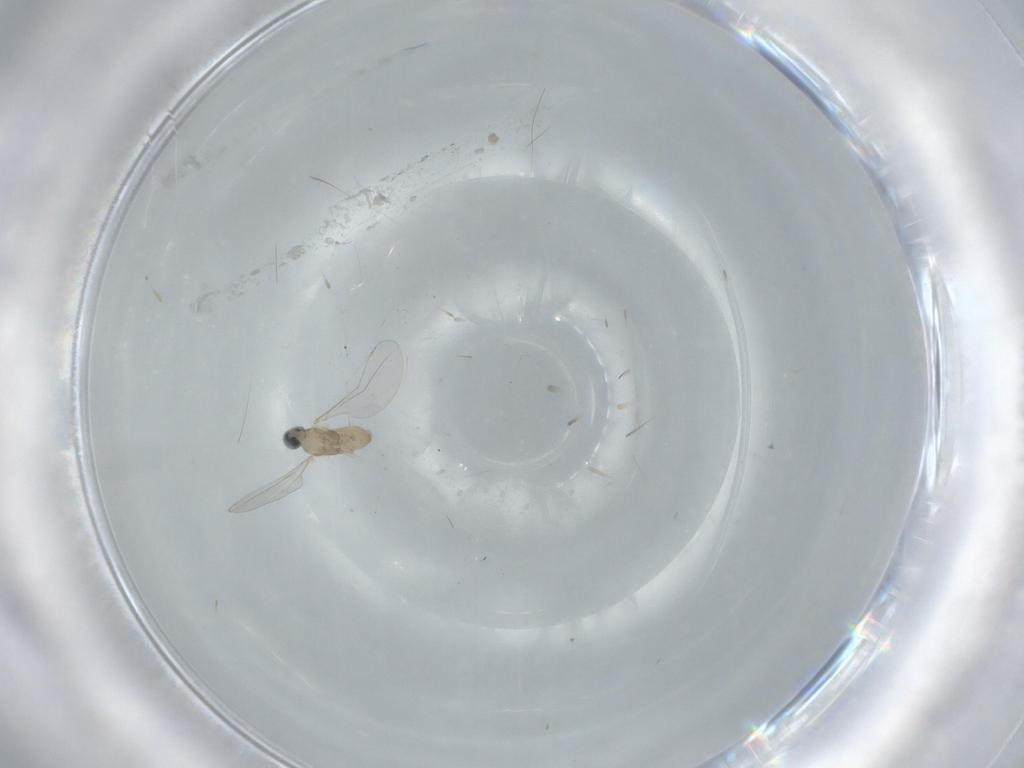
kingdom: Animalia
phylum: Arthropoda
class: Insecta
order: Diptera
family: Cecidomyiidae
